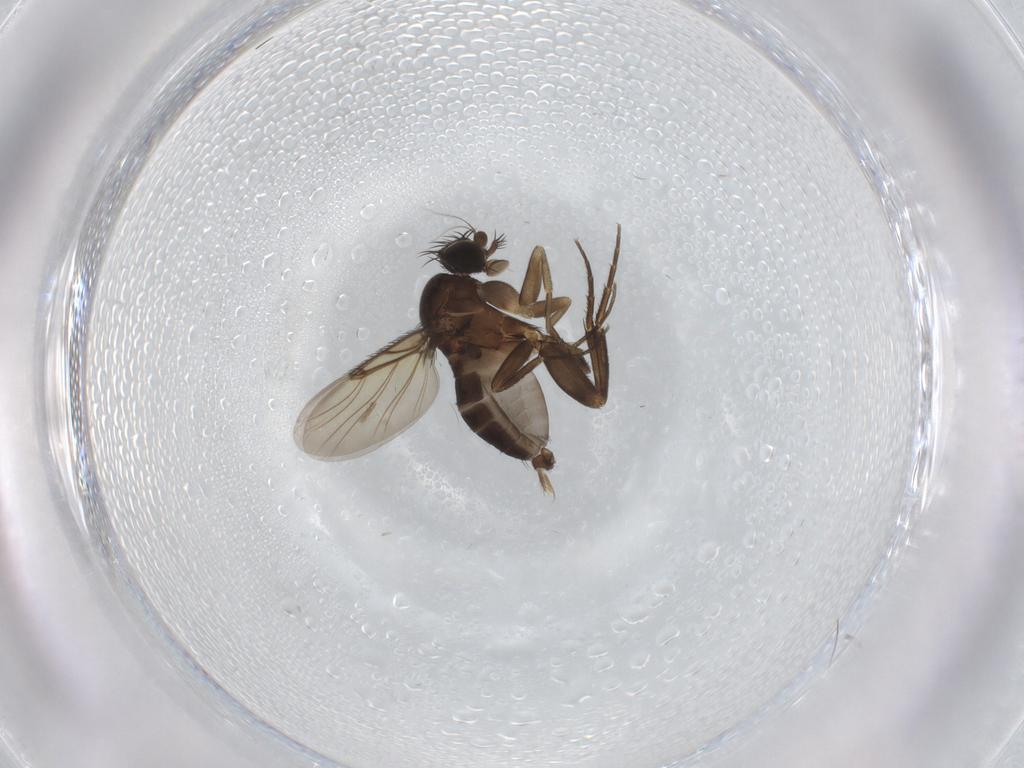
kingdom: Animalia
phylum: Arthropoda
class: Insecta
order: Diptera
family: Phoridae
